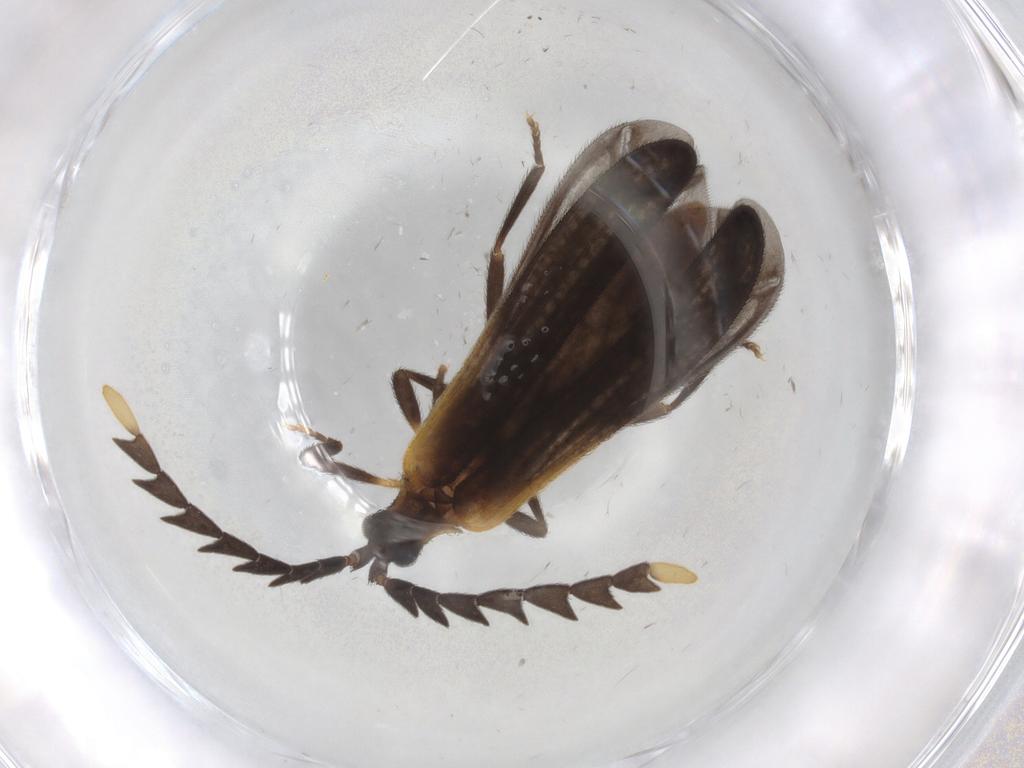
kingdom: Animalia
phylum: Arthropoda
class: Insecta
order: Coleoptera
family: Lycidae
